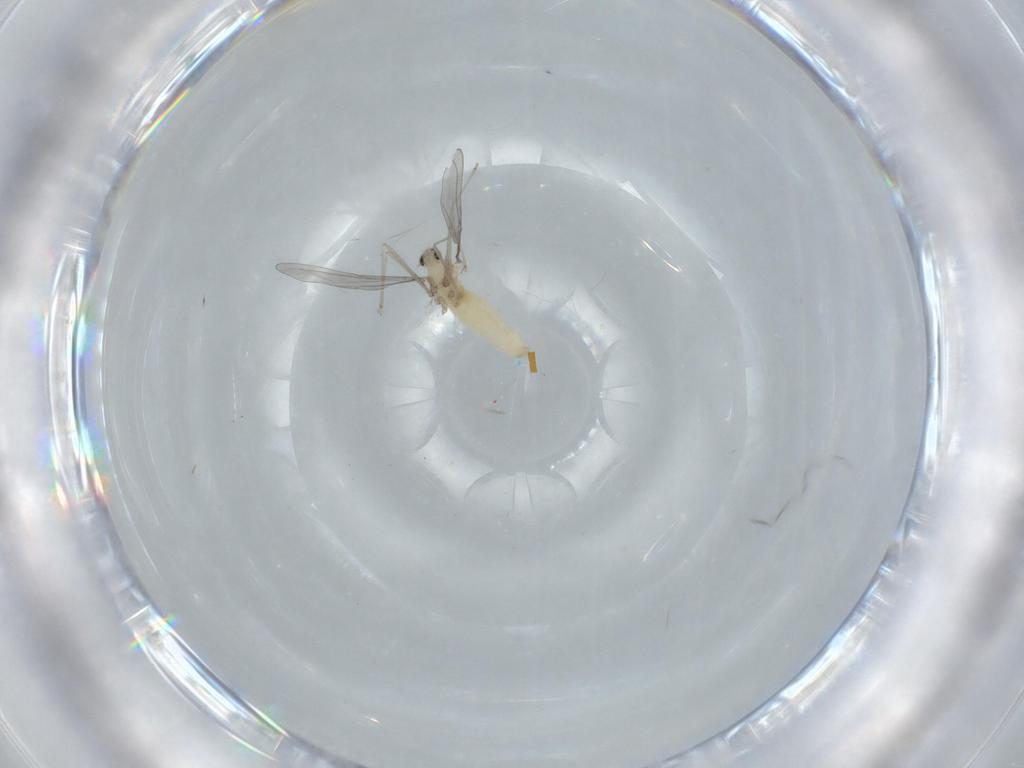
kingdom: Animalia
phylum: Arthropoda
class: Insecta
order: Diptera
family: Cecidomyiidae
